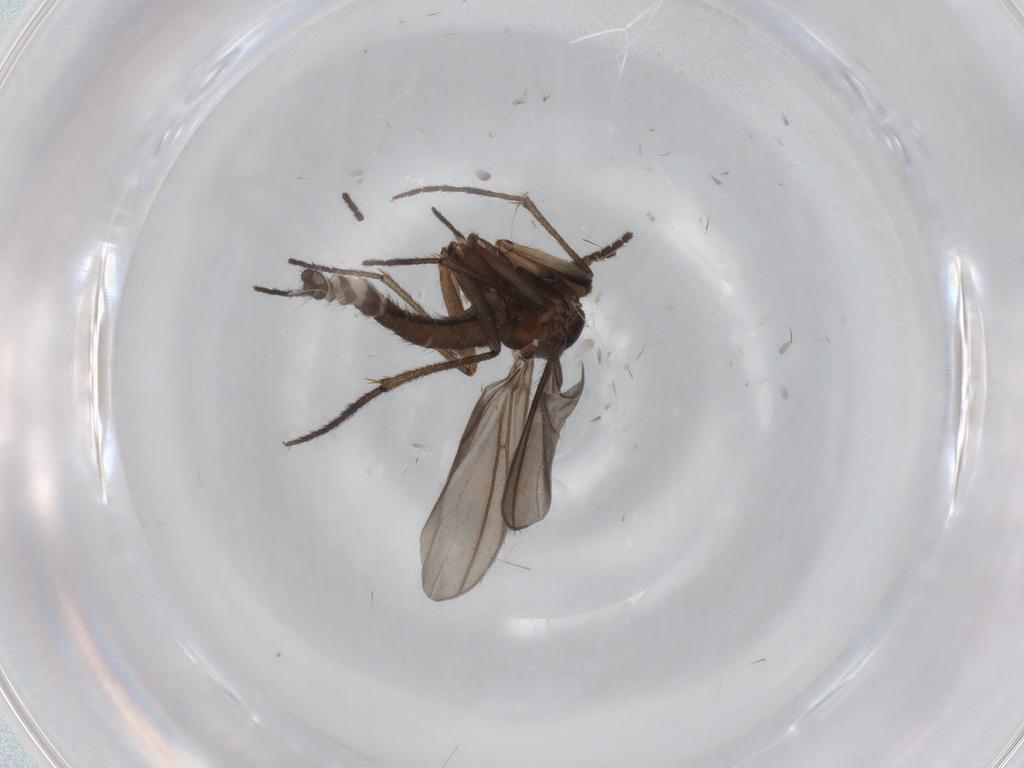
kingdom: Animalia
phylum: Arthropoda
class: Insecta
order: Diptera
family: Sciaridae
